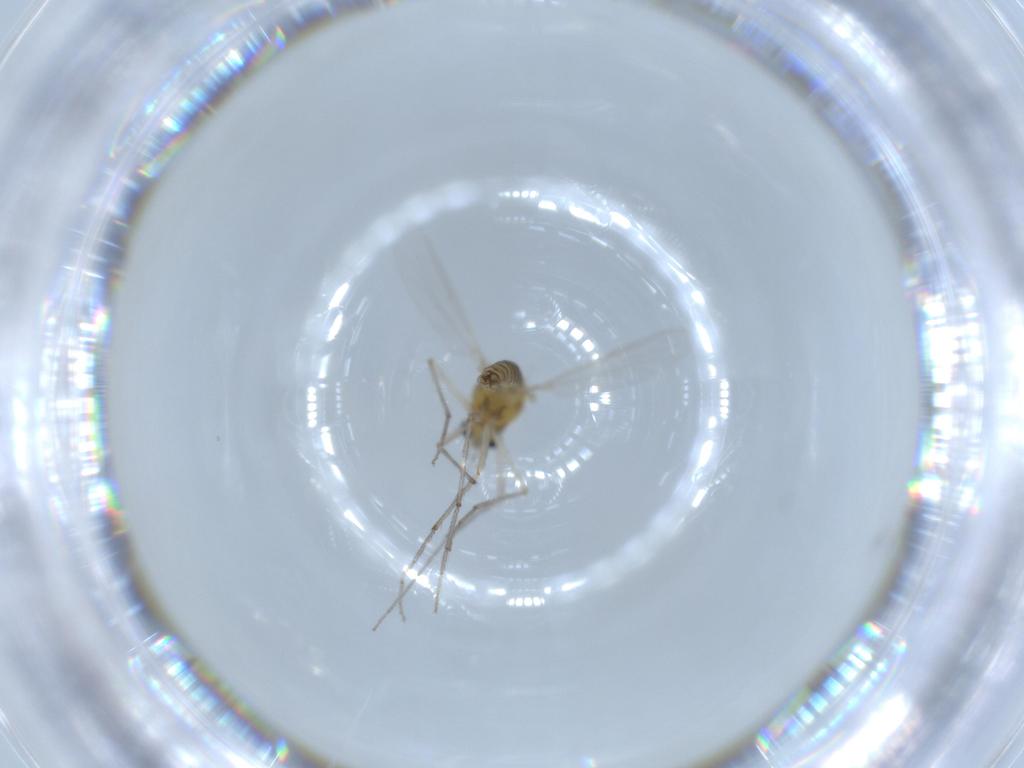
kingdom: Animalia
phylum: Arthropoda
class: Insecta
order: Diptera
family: Chironomidae
